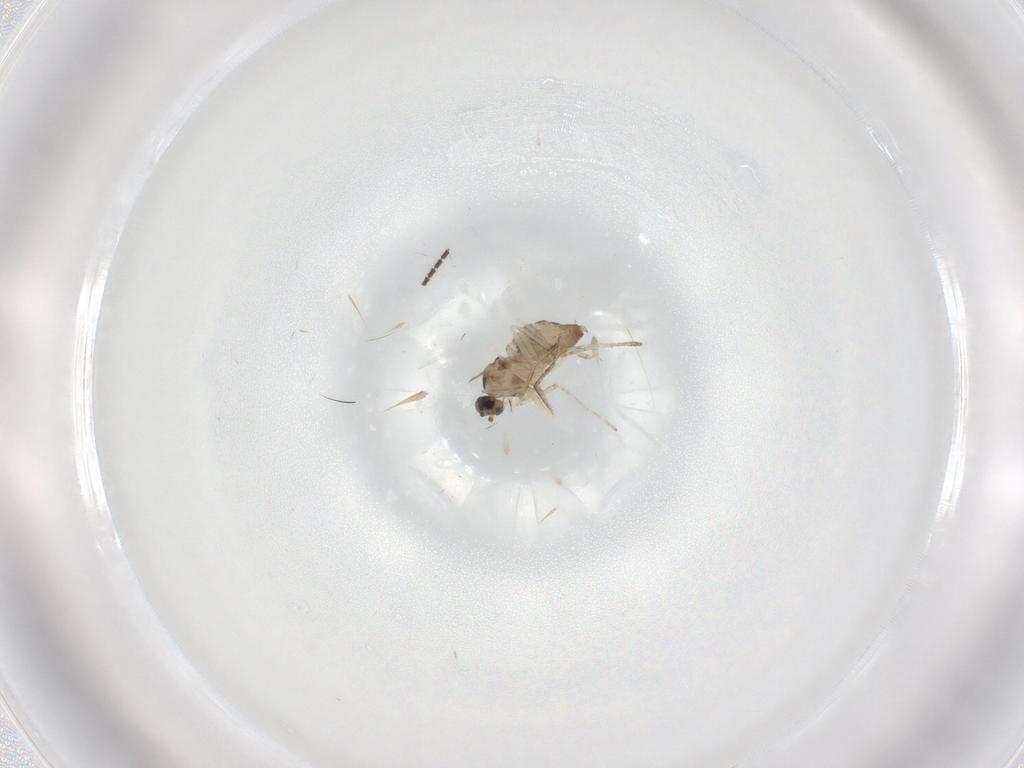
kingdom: Animalia
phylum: Arthropoda
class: Insecta
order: Diptera
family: Cecidomyiidae
